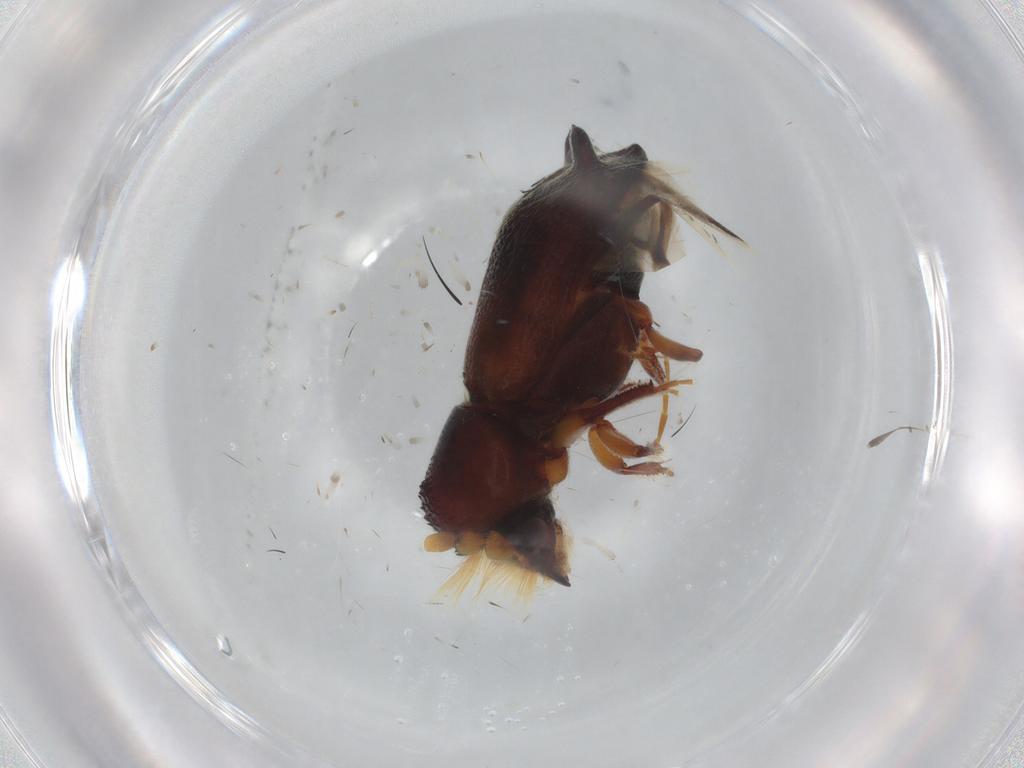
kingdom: Animalia
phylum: Arthropoda
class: Insecta
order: Coleoptera
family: Bostrichidae
